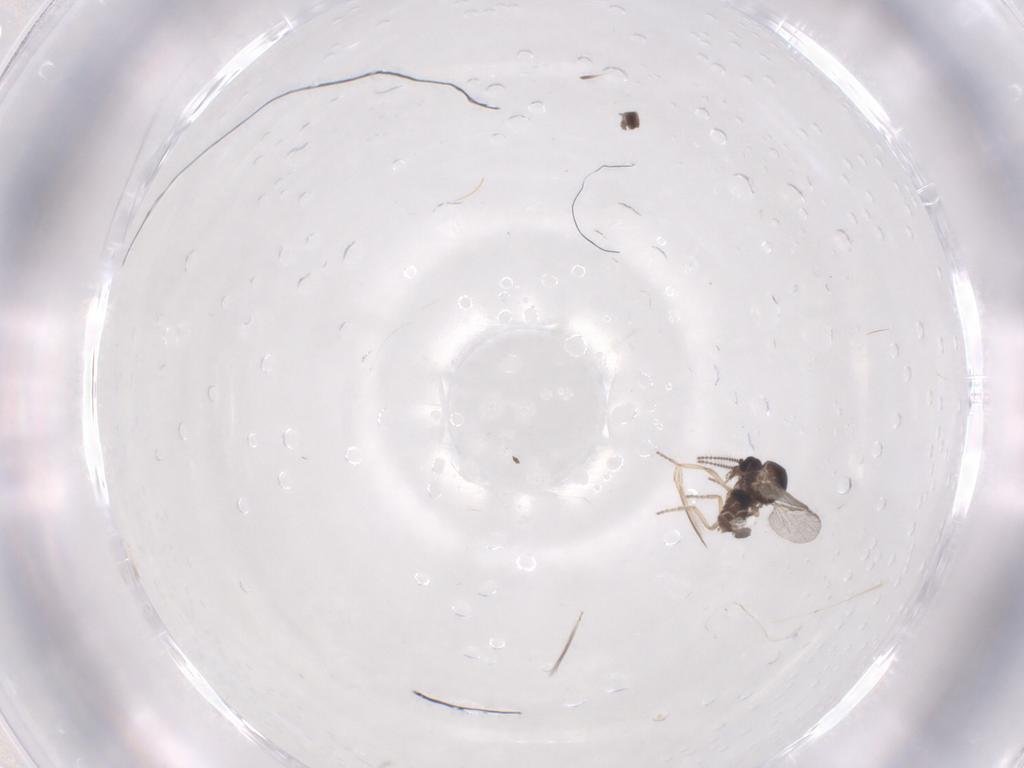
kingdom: Animalia
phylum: Arthropoda
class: Insecta
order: Diptera
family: Ceratopogonidae
